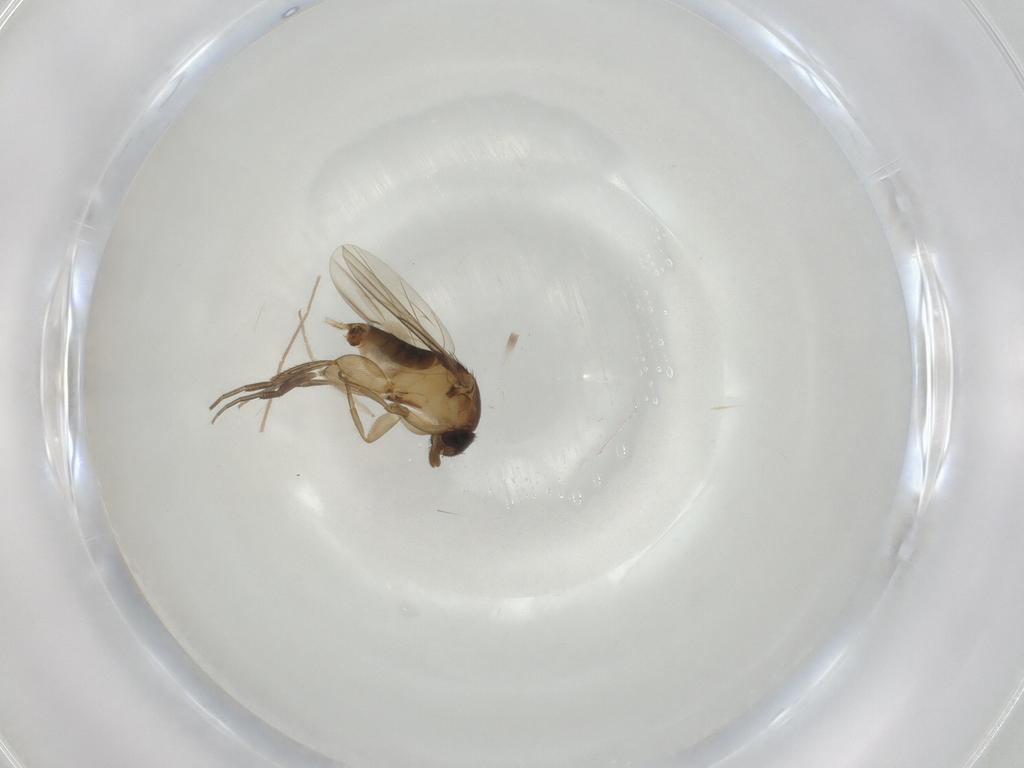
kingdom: Animalia
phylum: Arthropoda
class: Insecta
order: Diptera
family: Phoridae
